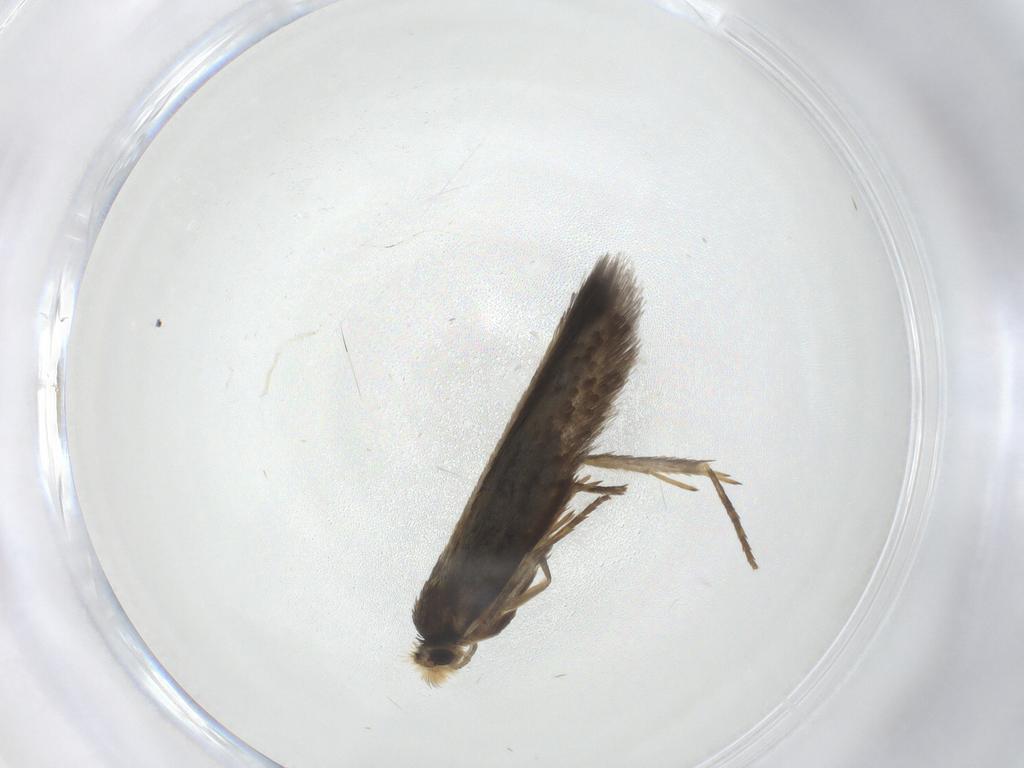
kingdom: Animalia
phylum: Arthropoda
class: Insecta
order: Lepidoptera
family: Nepticulidae
